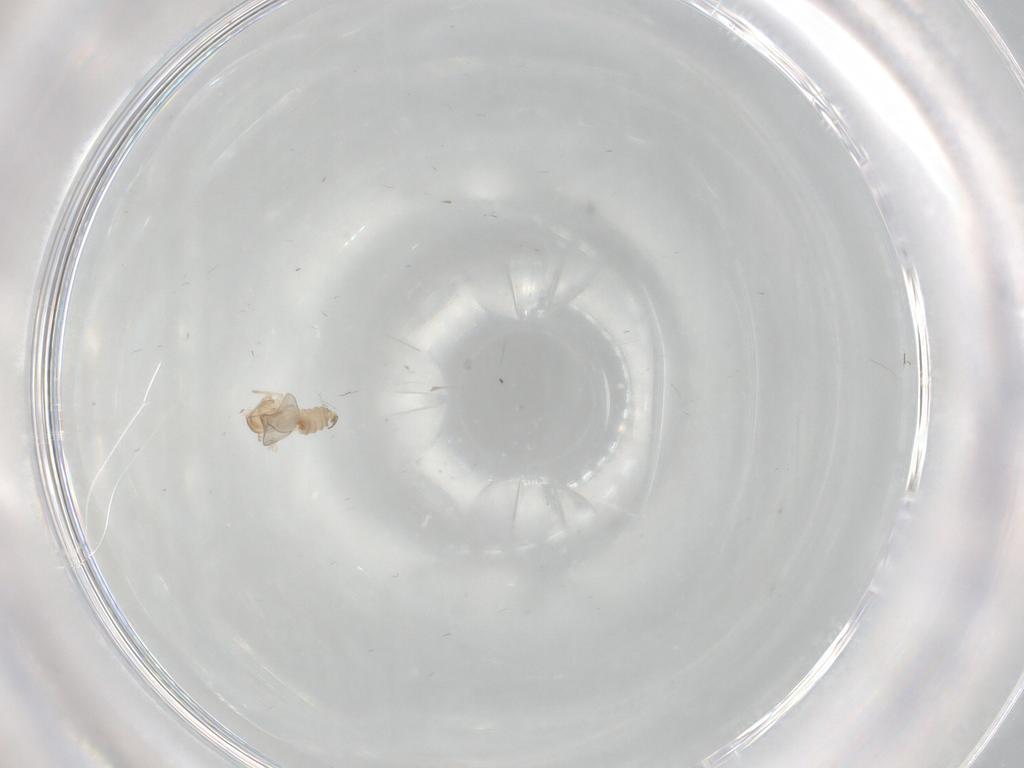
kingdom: Animalia
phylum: Arthropoda
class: Insecta
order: Diptera
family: Cecidomyiidae
